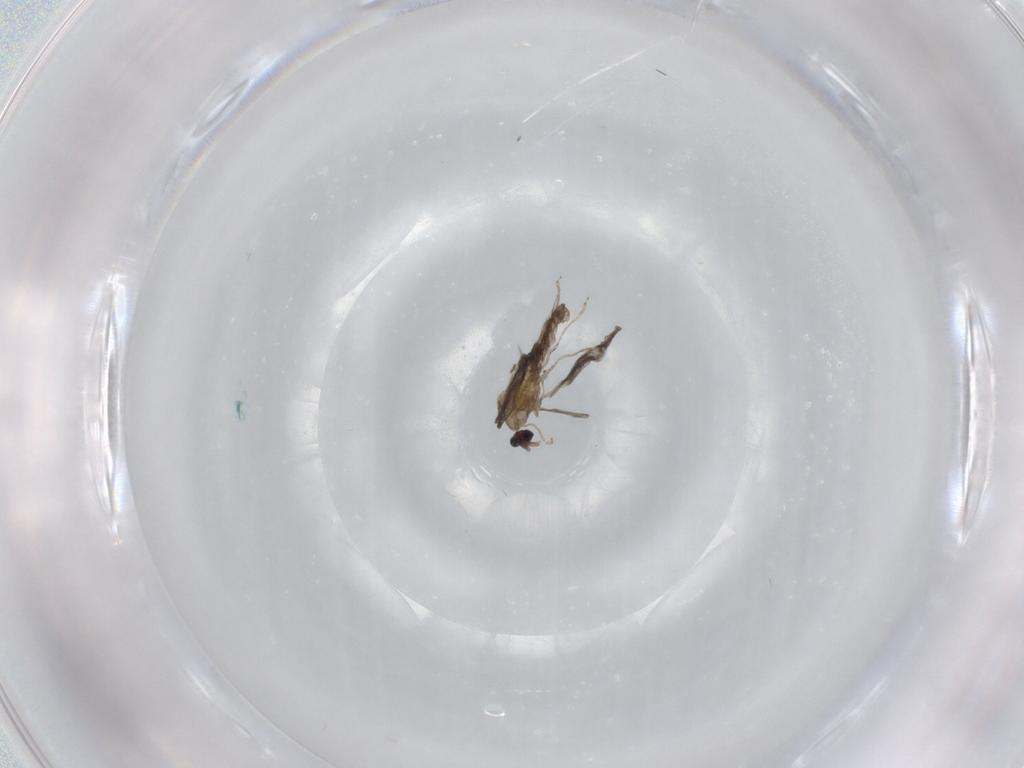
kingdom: Animalia
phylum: Arthropoda
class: Insecta
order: Diptera
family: Cecidomyiidae
